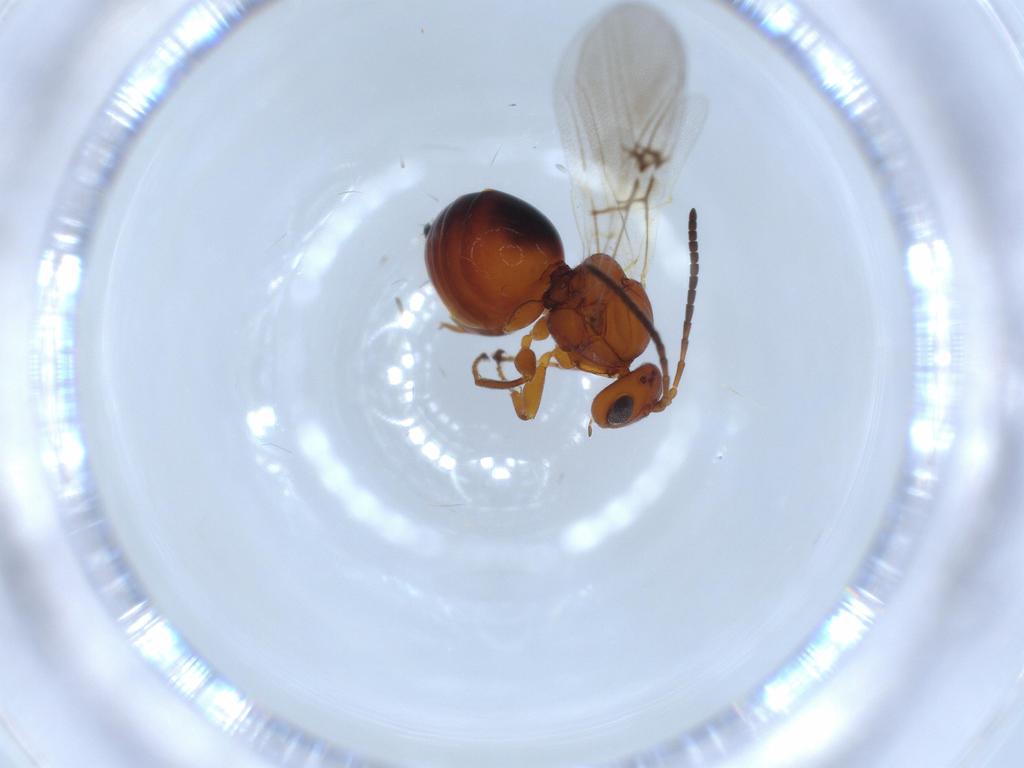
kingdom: Animalia
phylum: Arthropoda
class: Insecta
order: Hymenoptera
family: Cynipidae
